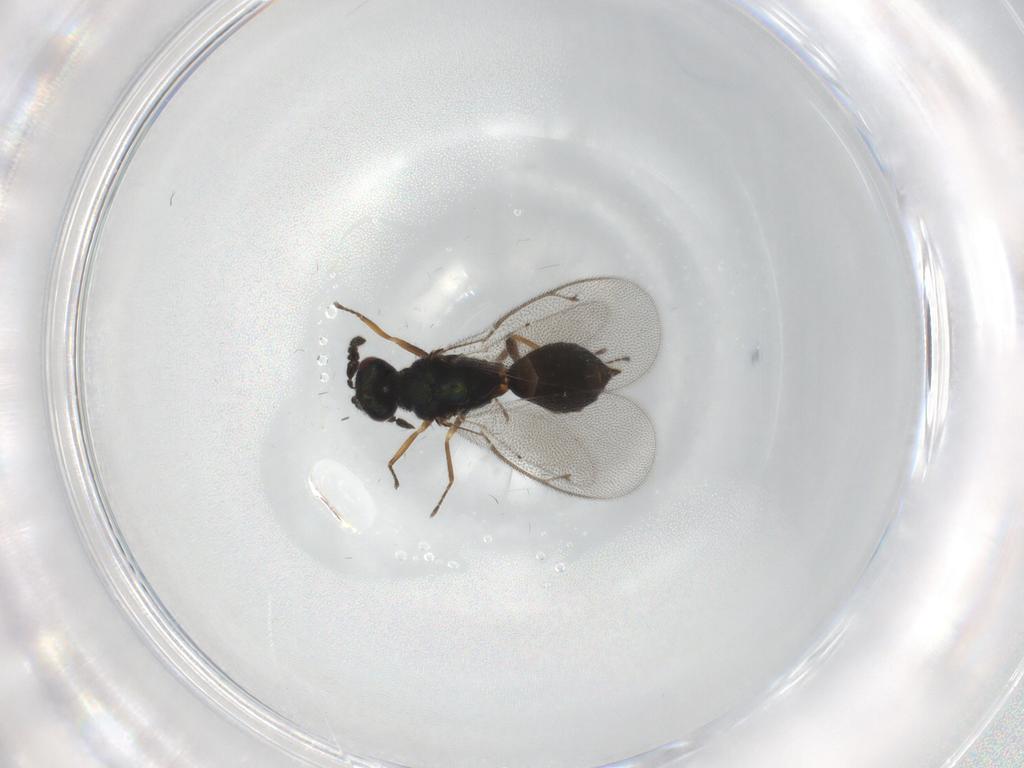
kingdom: Animalia
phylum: Arthropoda
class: Insecta
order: Hymenoptera
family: Eulophidae
